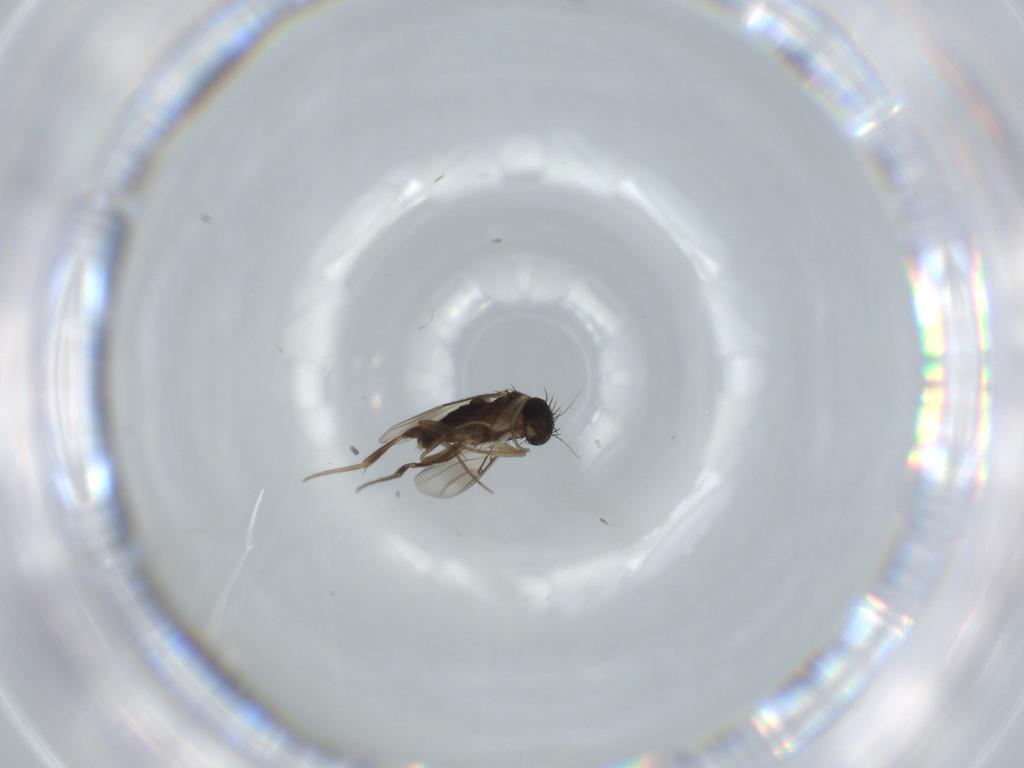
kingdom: Animalia
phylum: Arthropoda
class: Insecta
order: Diptera
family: Phoridae
